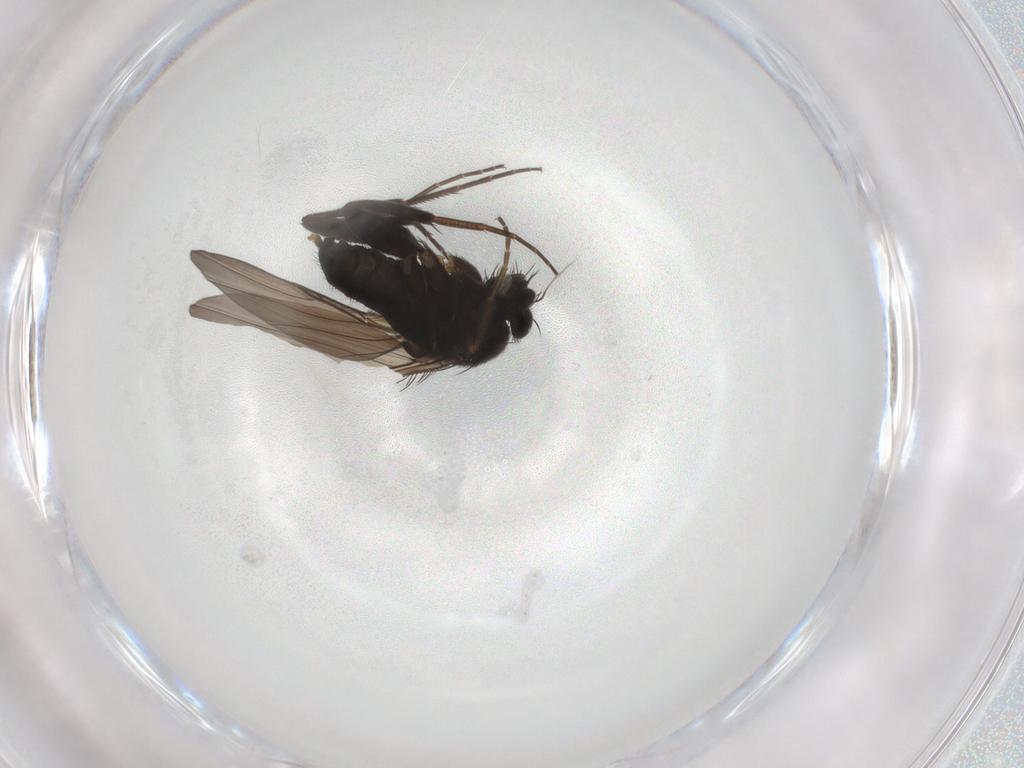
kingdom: Animalia
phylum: Arthropoda
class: Insecta
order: Diptera
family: Phoridae
